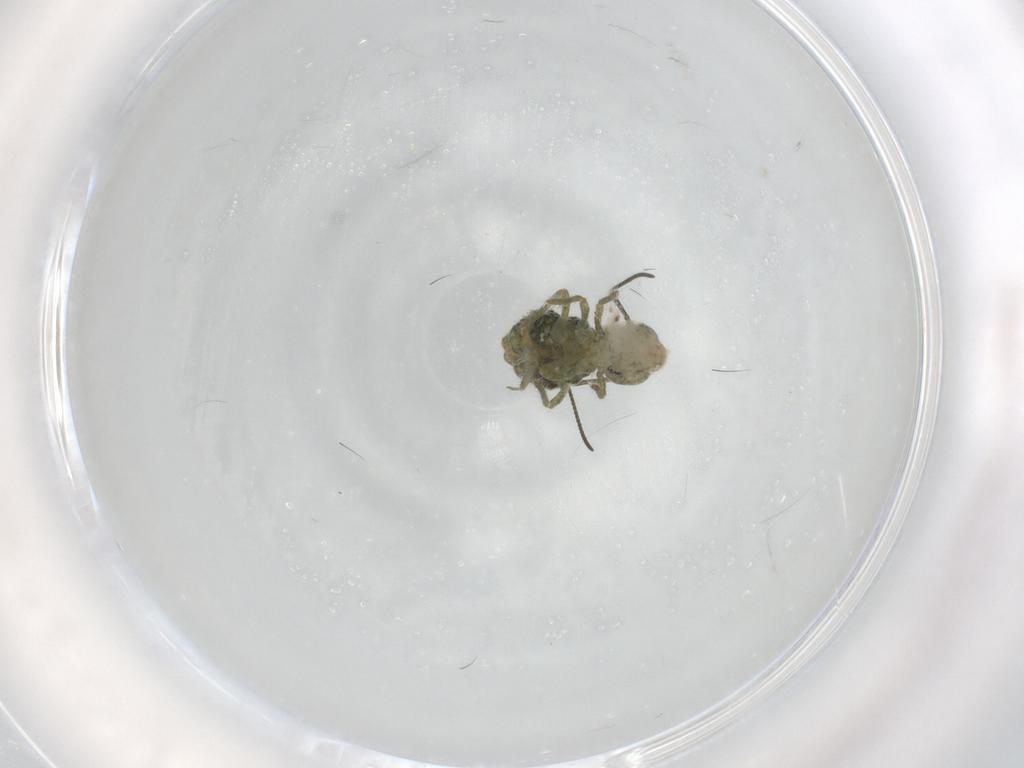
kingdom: Animalia
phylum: Arthropoda
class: Collembola
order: Symphypleona
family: Sminthuridae
